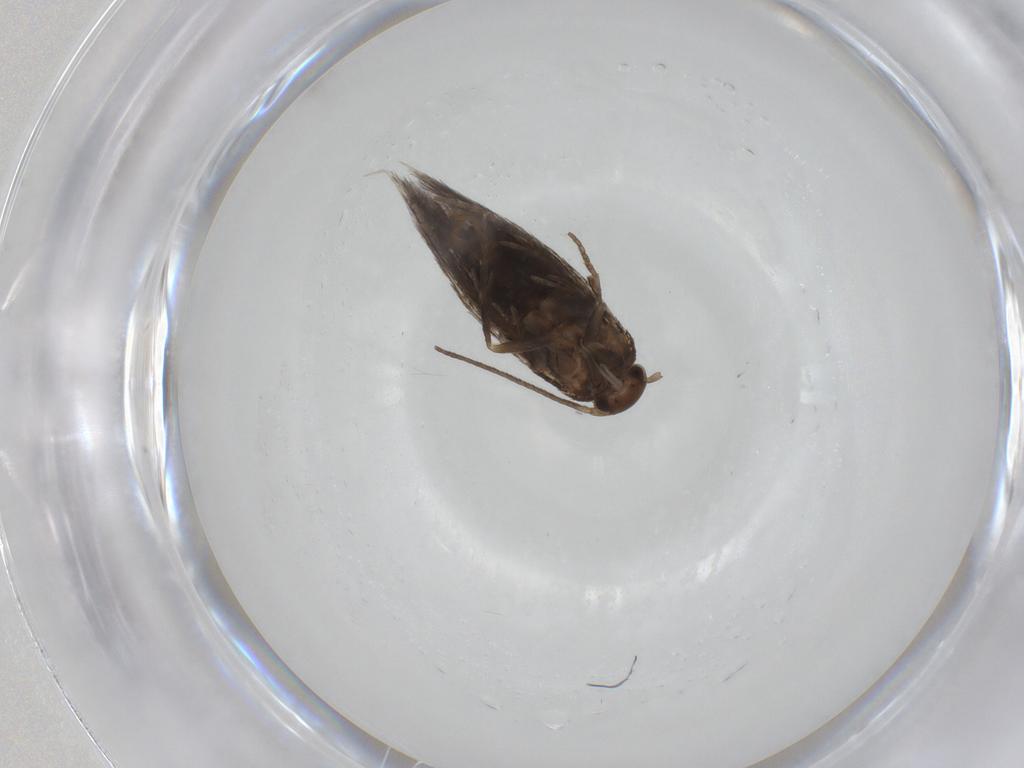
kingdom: Animalia
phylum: Arthropoda
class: Insecta
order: Lepidoptera
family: Elachistidae
